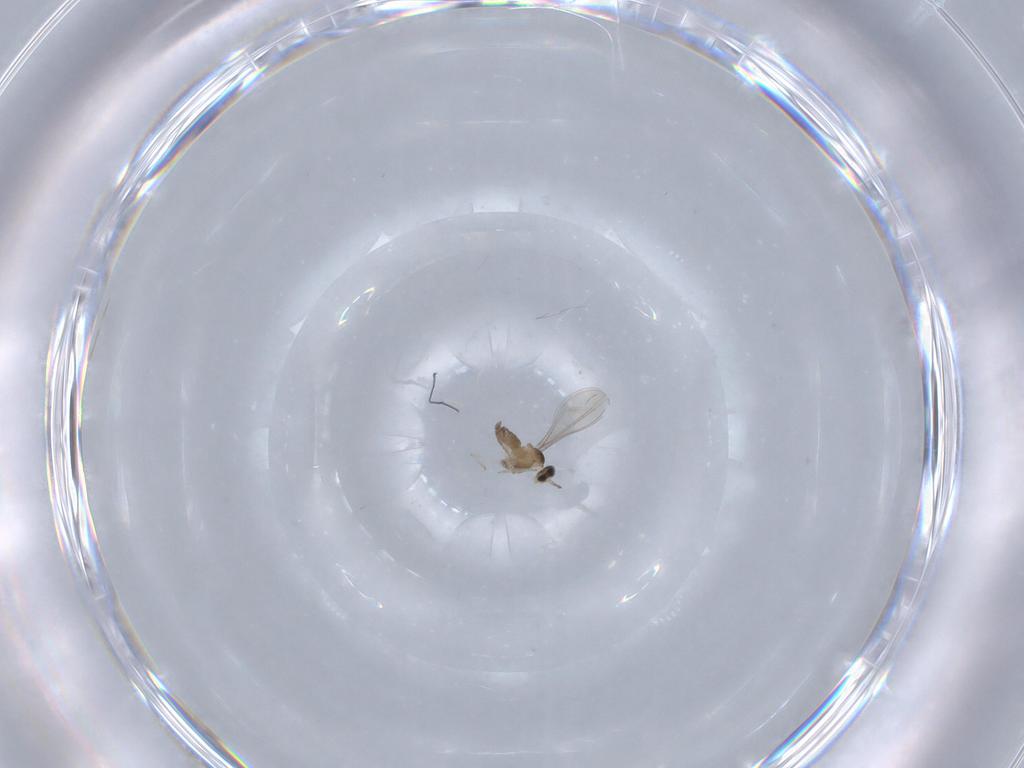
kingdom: Animalia
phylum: Arthropoda
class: Insecta
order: Diptera
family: Cecidomyiidae
